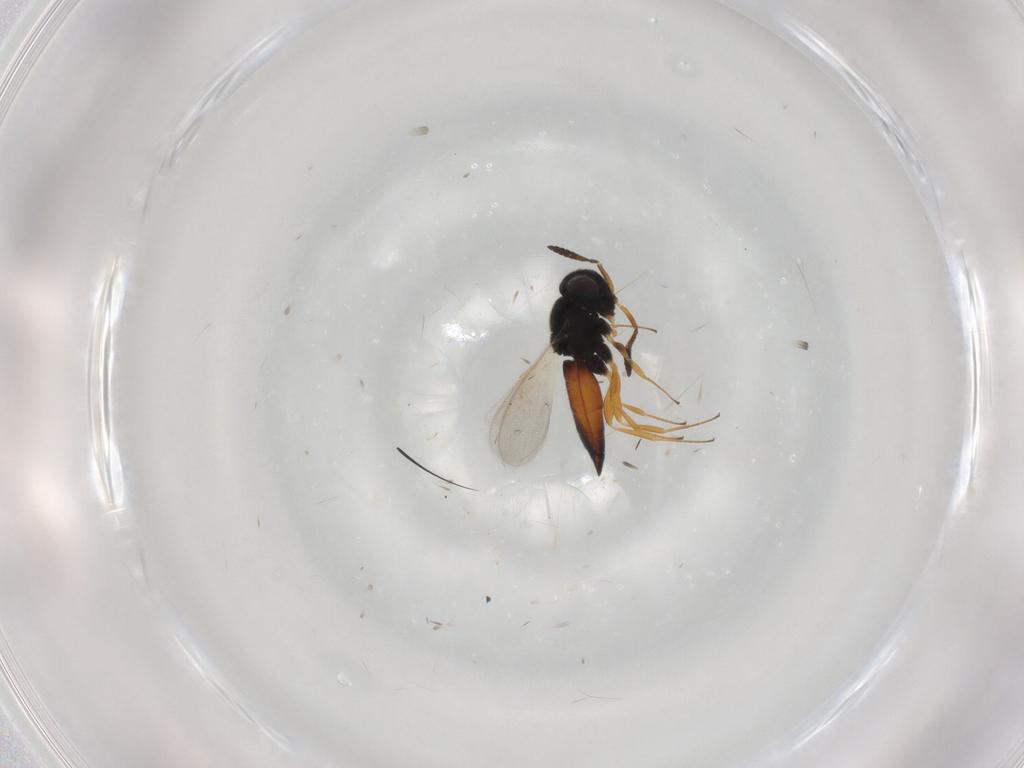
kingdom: Animalia
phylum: Arthropoda
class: Insecta
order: Hymenoptera
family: Scelionidae
